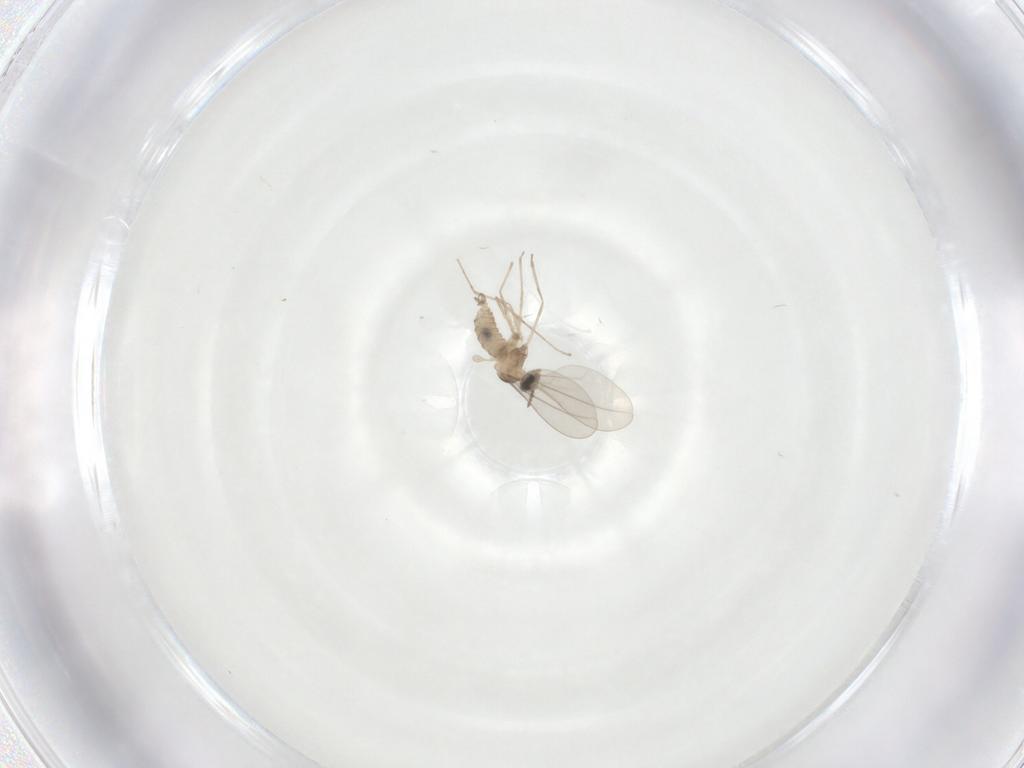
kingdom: Animalia
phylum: Arthropoda
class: Insecta
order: Diptera
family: Cecidomyiidae
